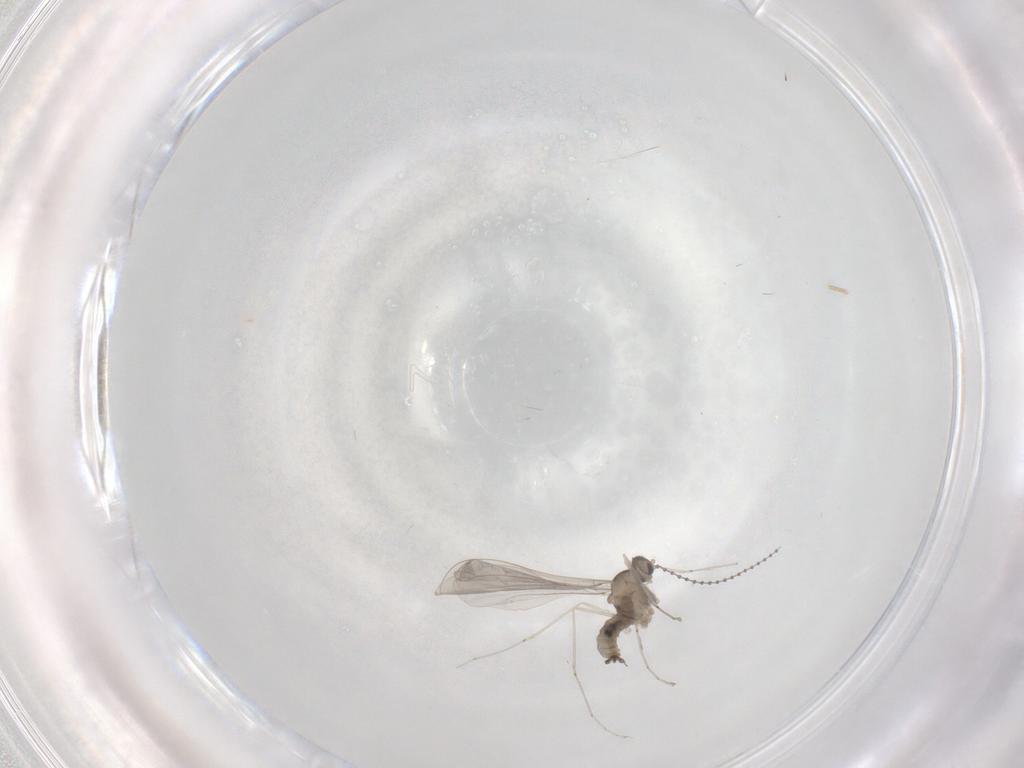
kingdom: Animalia
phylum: Arthropoda
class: Insecta
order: Diptera
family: Cecidomyiidae
